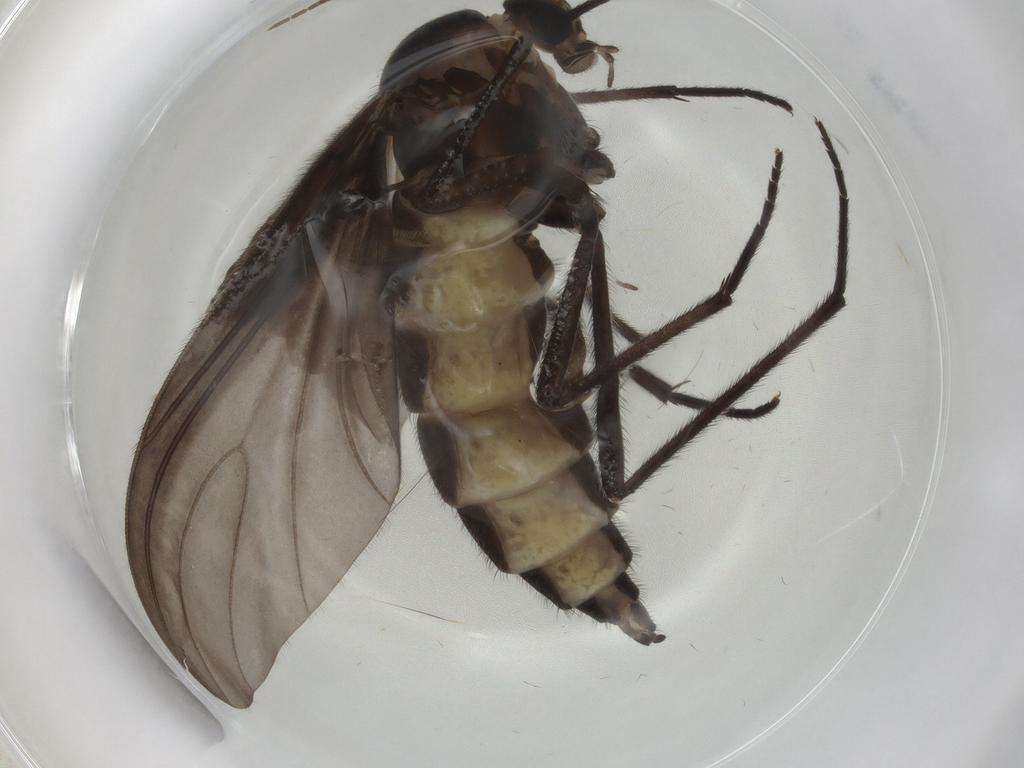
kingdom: Animalia
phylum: Arthropoda
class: Insecta
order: Diptera
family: Sciaridae
